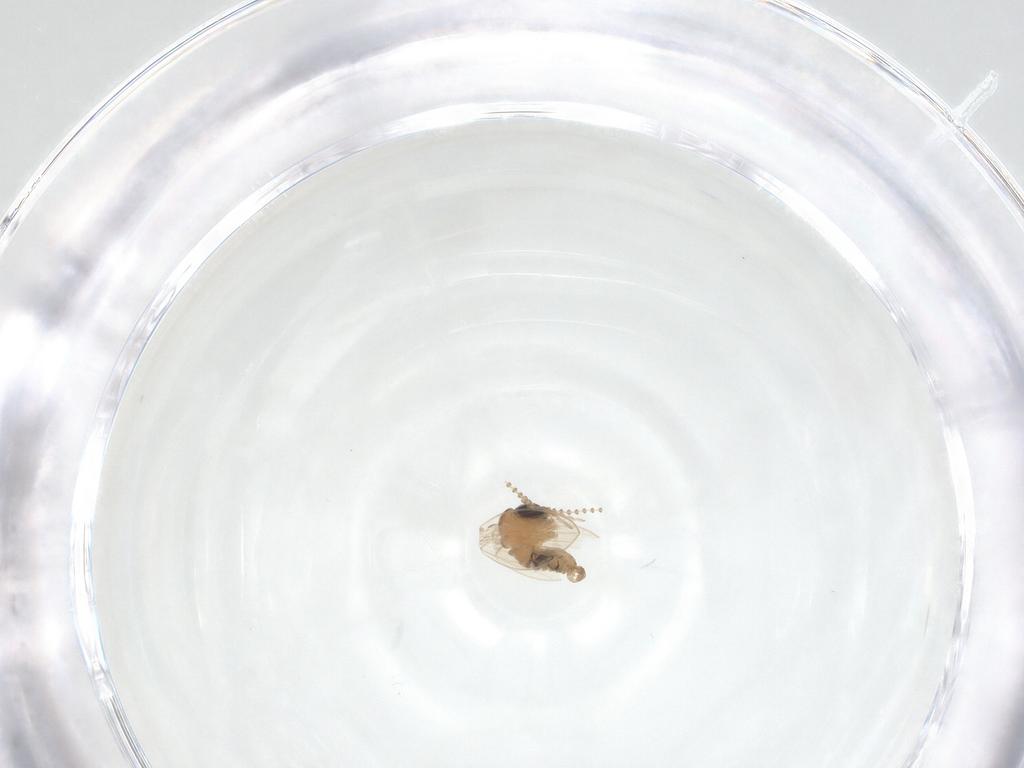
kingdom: Animalia
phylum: Arthropoda
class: Insecta
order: Diptera
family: Psychodidae
